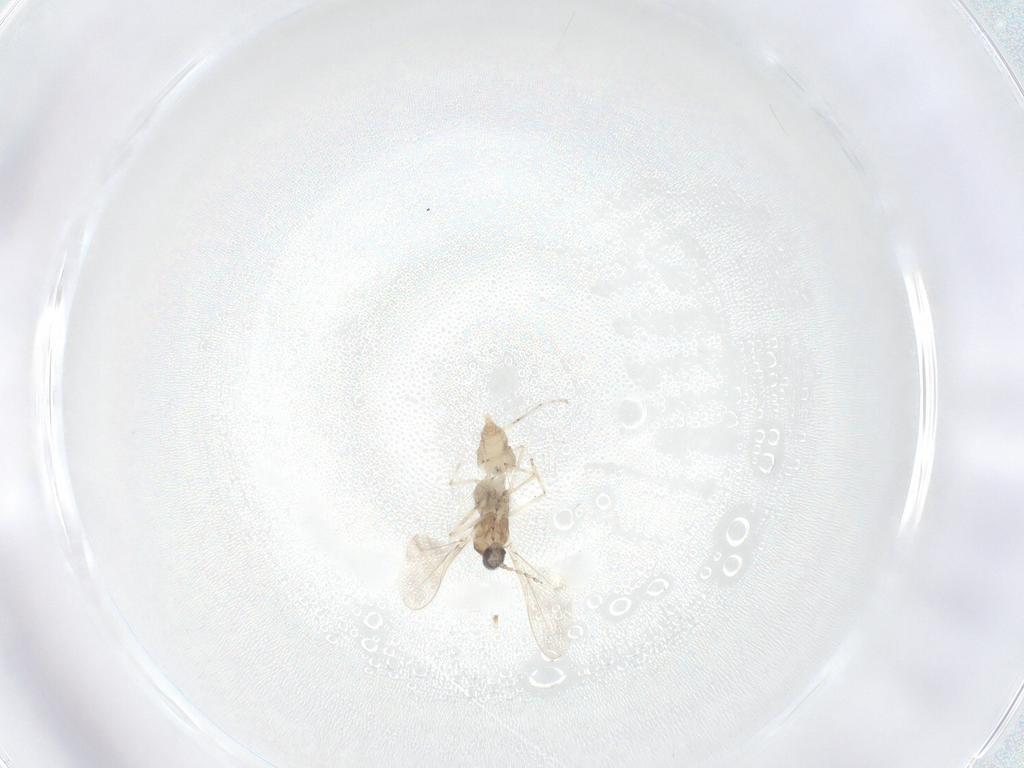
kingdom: Animalia
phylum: Arthropoda
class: Insecta
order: Diptera
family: Cecidomyiidae
